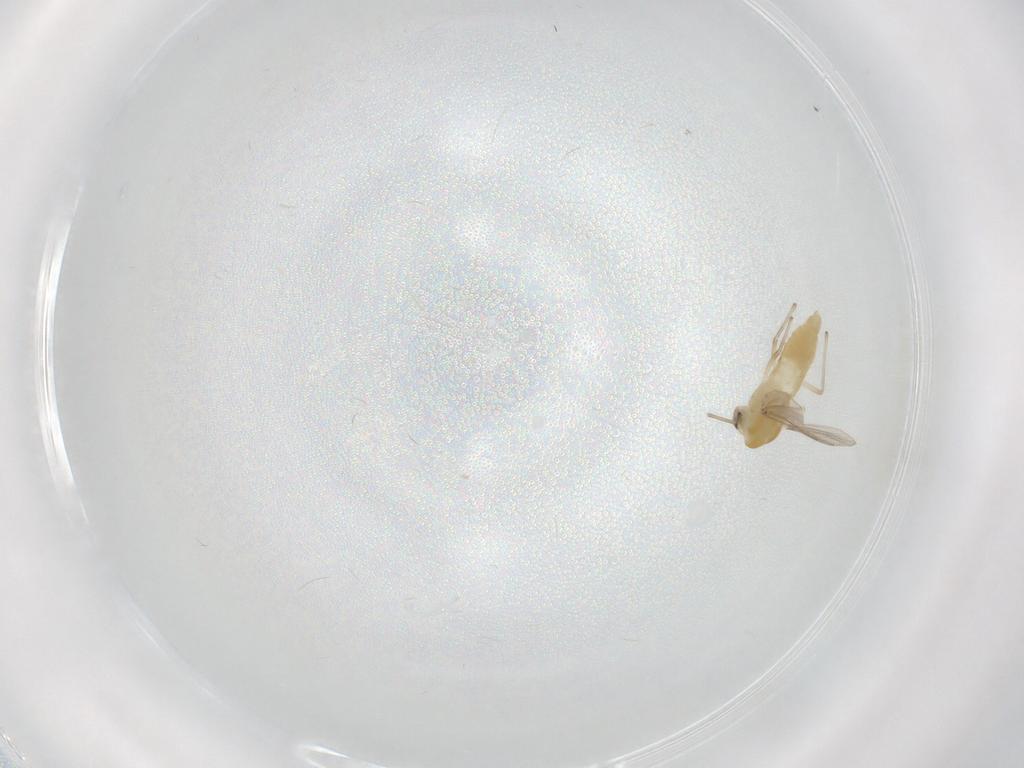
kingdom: Animalia
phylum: Arthropoda
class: Insecta
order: Diptera
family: Chironomidae
